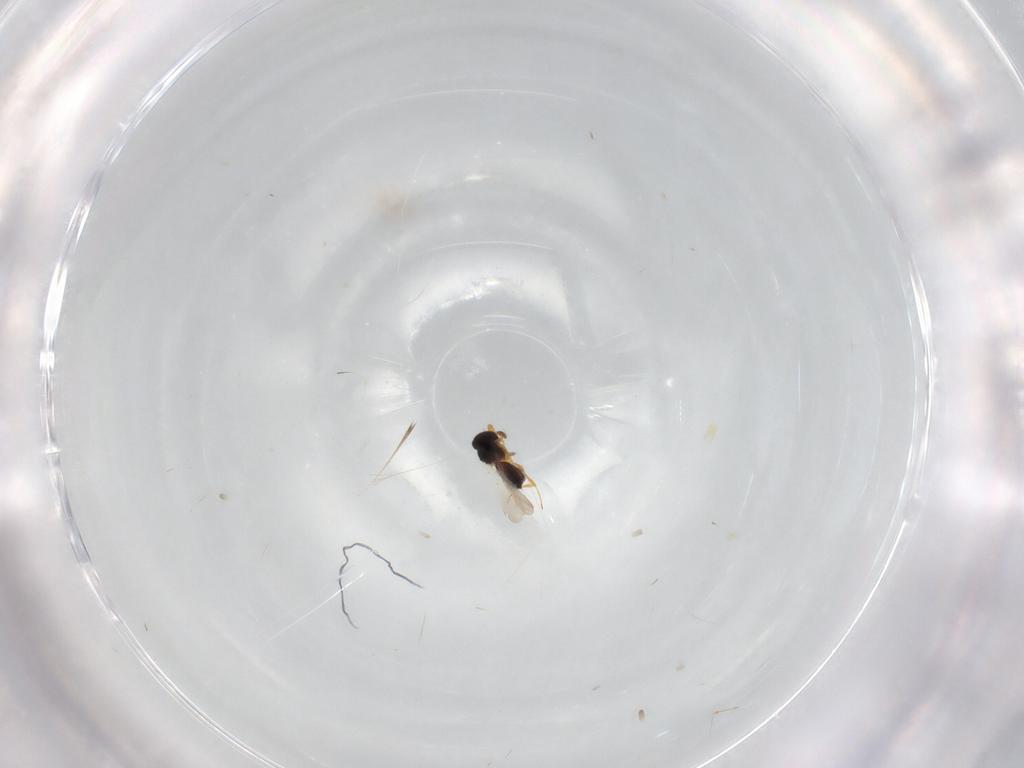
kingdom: Animalia
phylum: Arthropoda
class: Insecta
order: Hymenoptera
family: Platygastridae
